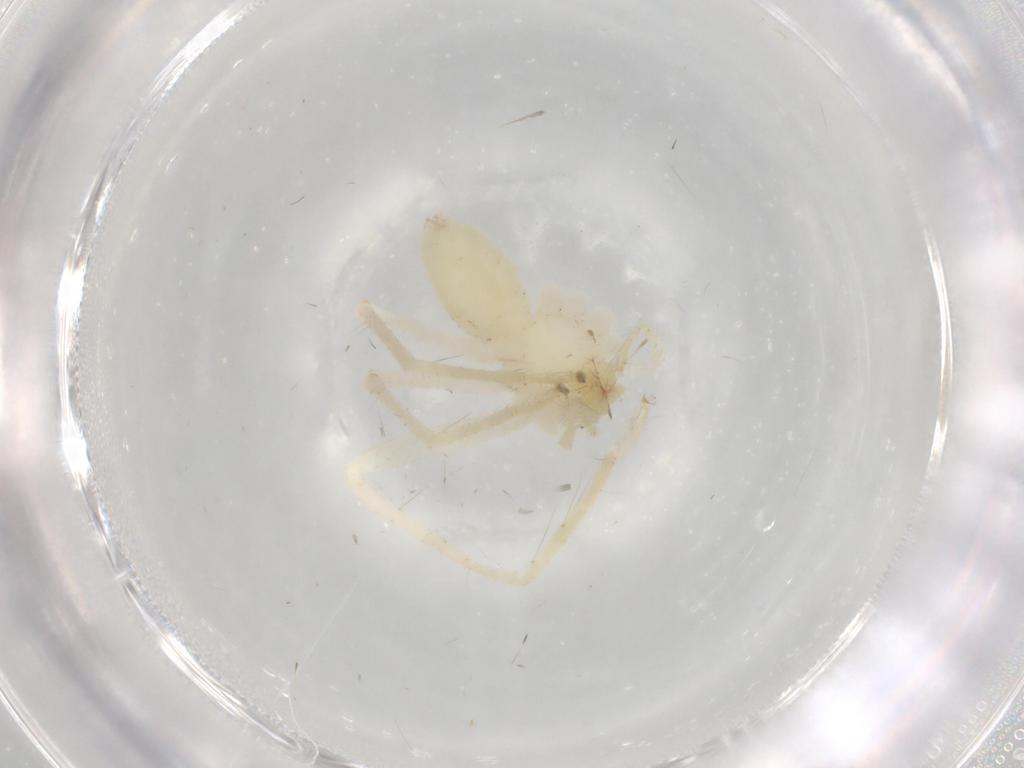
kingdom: Animalia
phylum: Arthropoda
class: Arachnida
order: Araneae
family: Sparassidae
